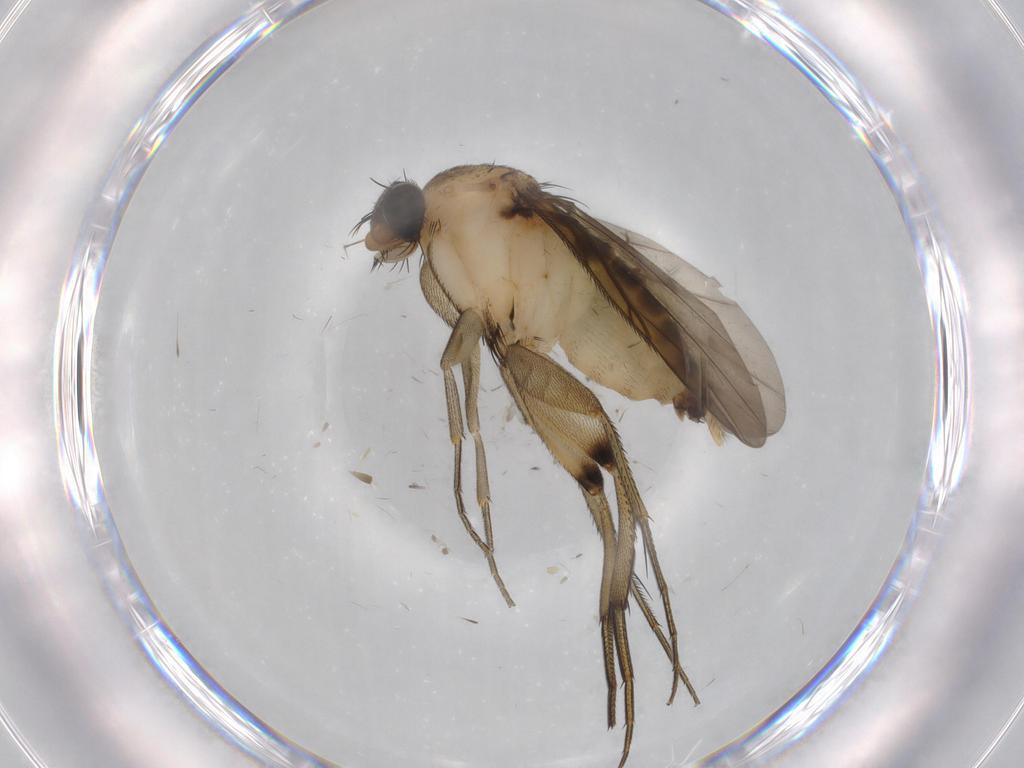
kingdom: Animalia
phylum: Arthropoda
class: Insecta
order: Diptera
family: Phoridae
